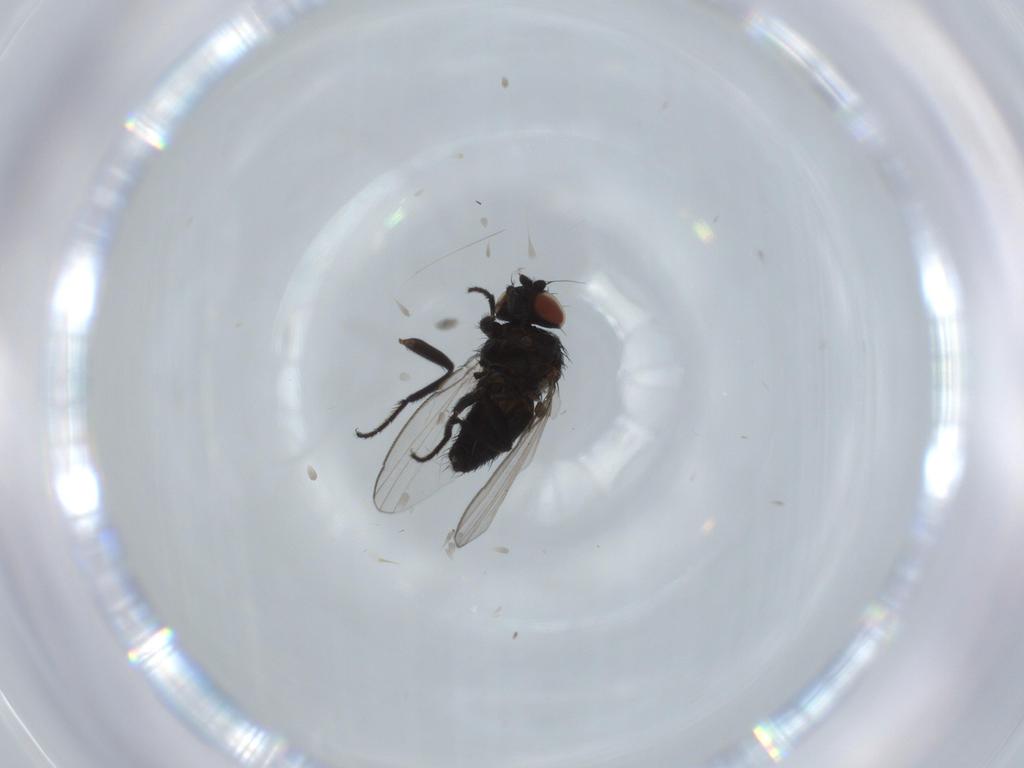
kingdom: Animalia
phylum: Arthropoda
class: Insecta
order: Diptera
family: Milichiidae
